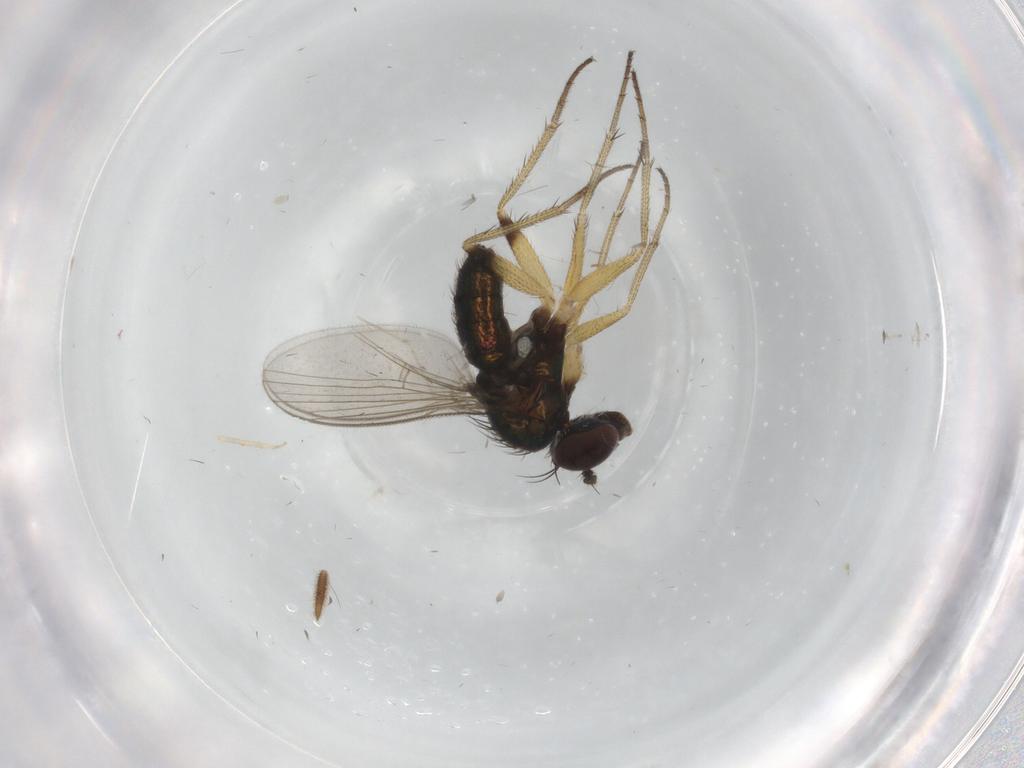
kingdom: Animalia
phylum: Arthropoda
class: Insecta
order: Diptera
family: Cecidomyiidae
